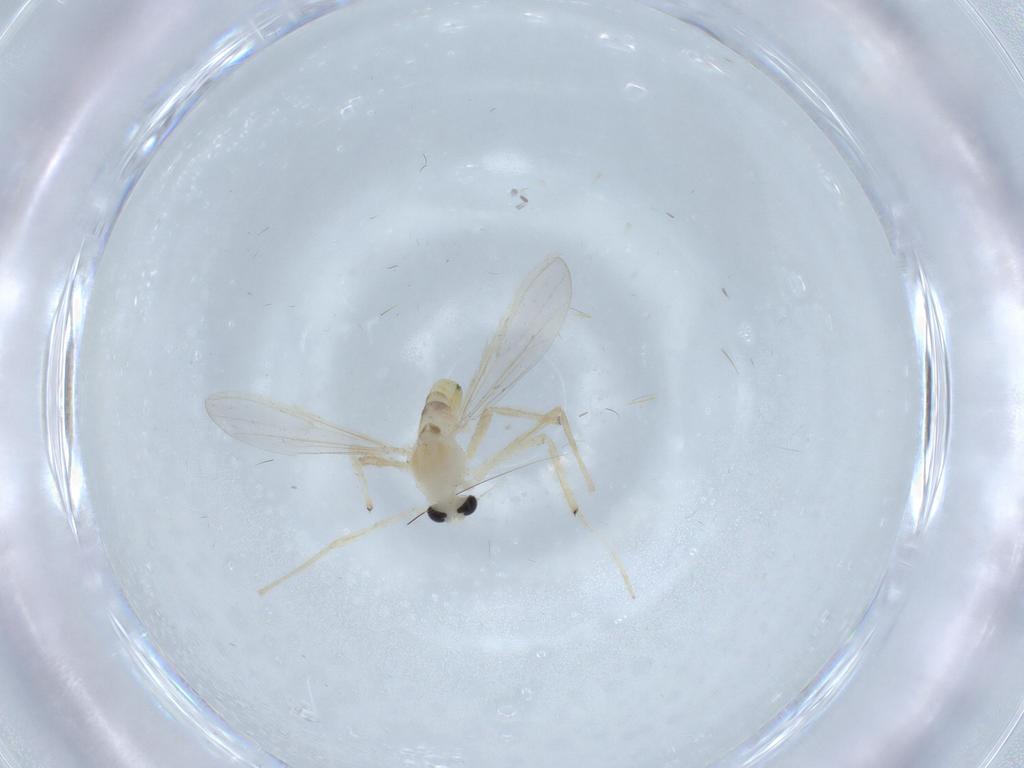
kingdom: Animalia
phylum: Arthropoda
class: Insecta
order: Diptera
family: Chironomidae
